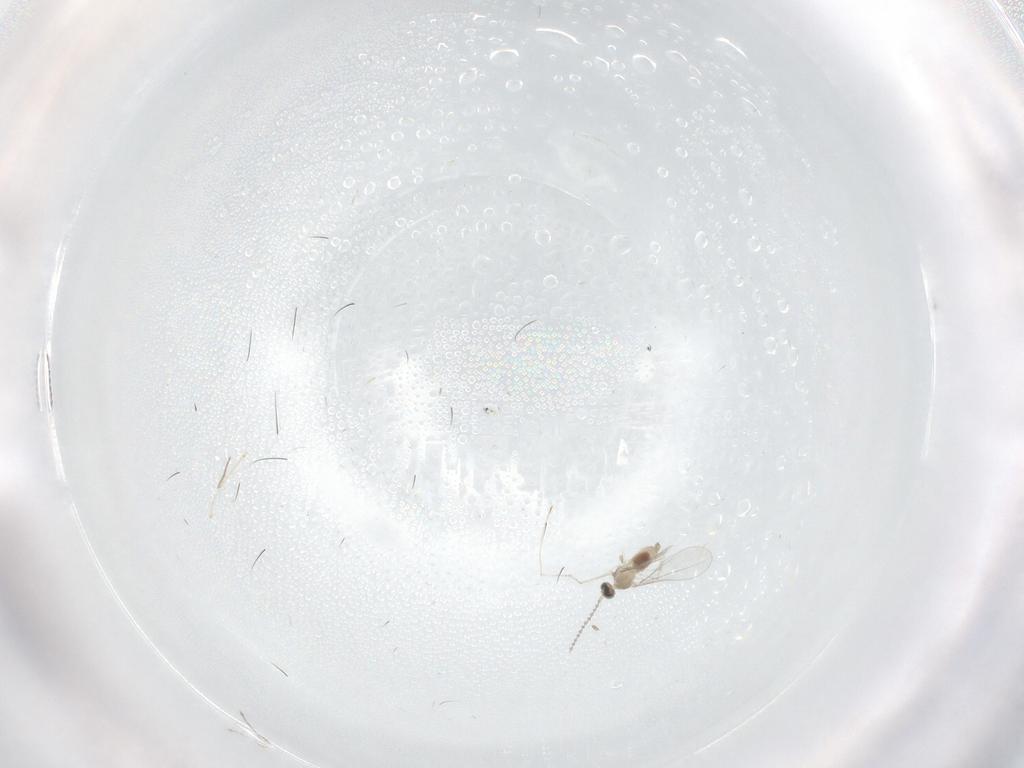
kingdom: Animalia
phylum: Arthropoda
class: Insecta
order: Diptera
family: Chironomidae
